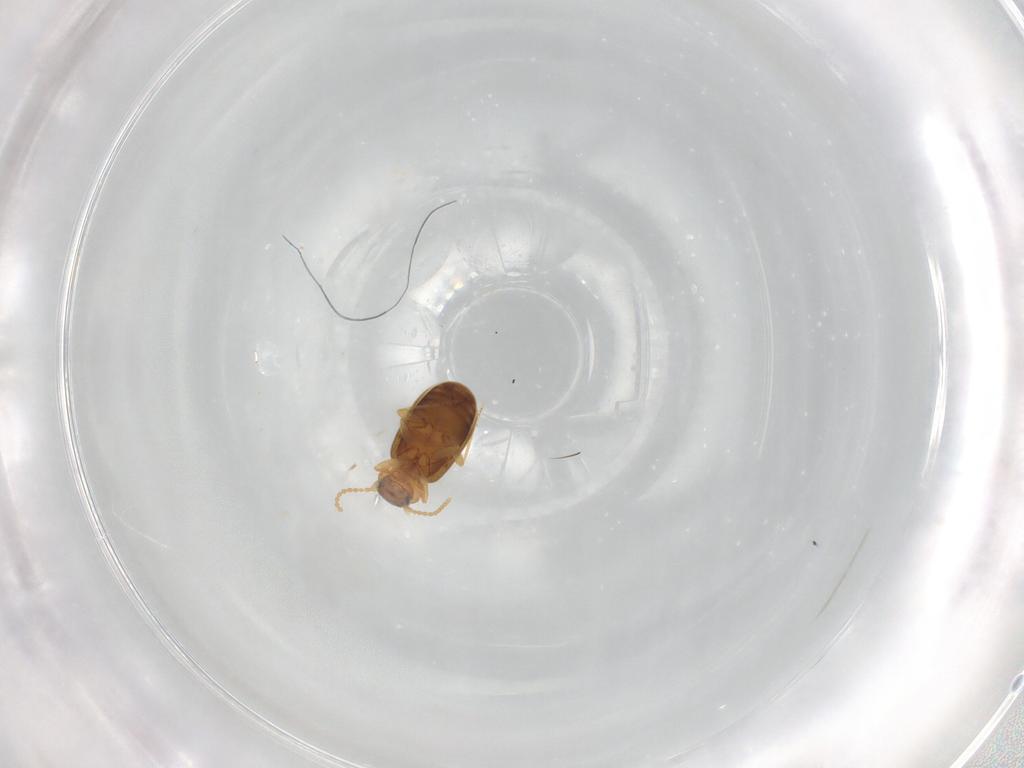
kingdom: Animalia
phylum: Arthropoda
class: Insecta
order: Coleoptera
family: Carabidae
